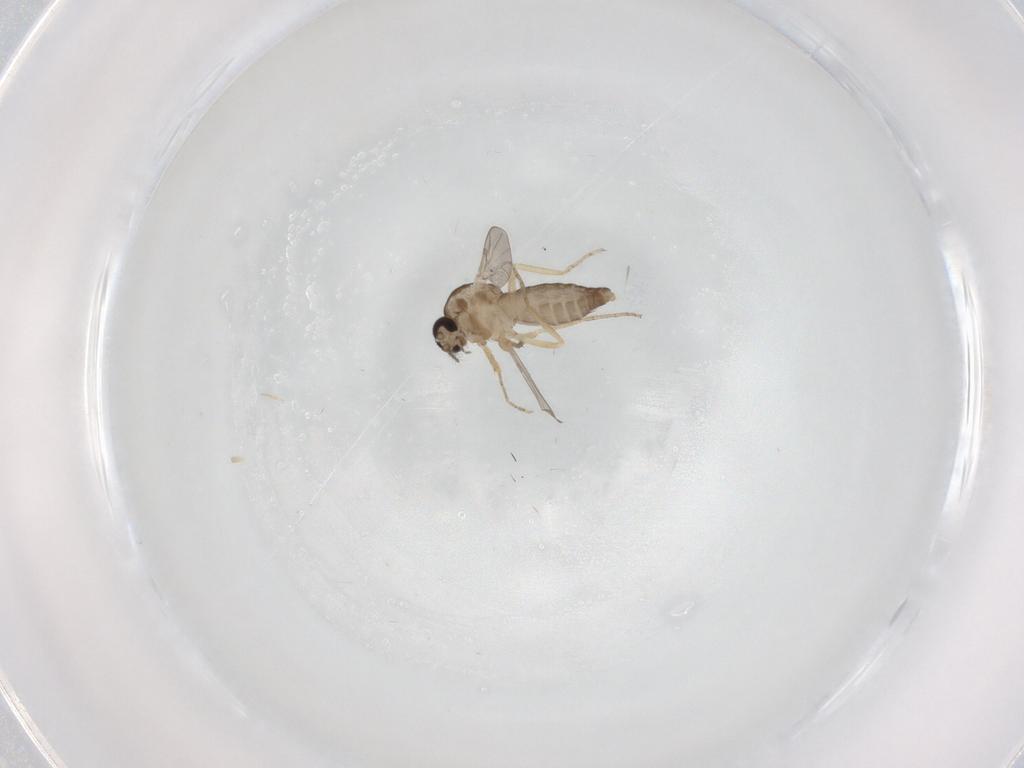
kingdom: Animalia
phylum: Arthropoda
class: Insecta
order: Diptera
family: Ceratopogonidae
